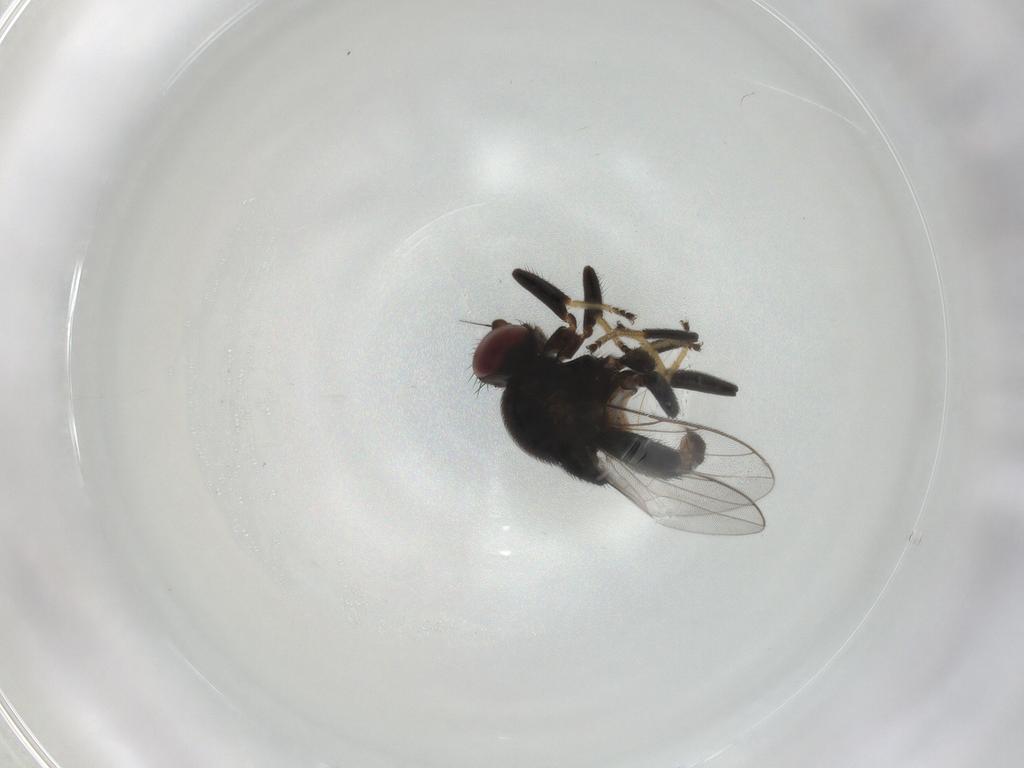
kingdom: Animalia
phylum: Arthropoda
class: Insecta
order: Diptera
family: Chloropidae
